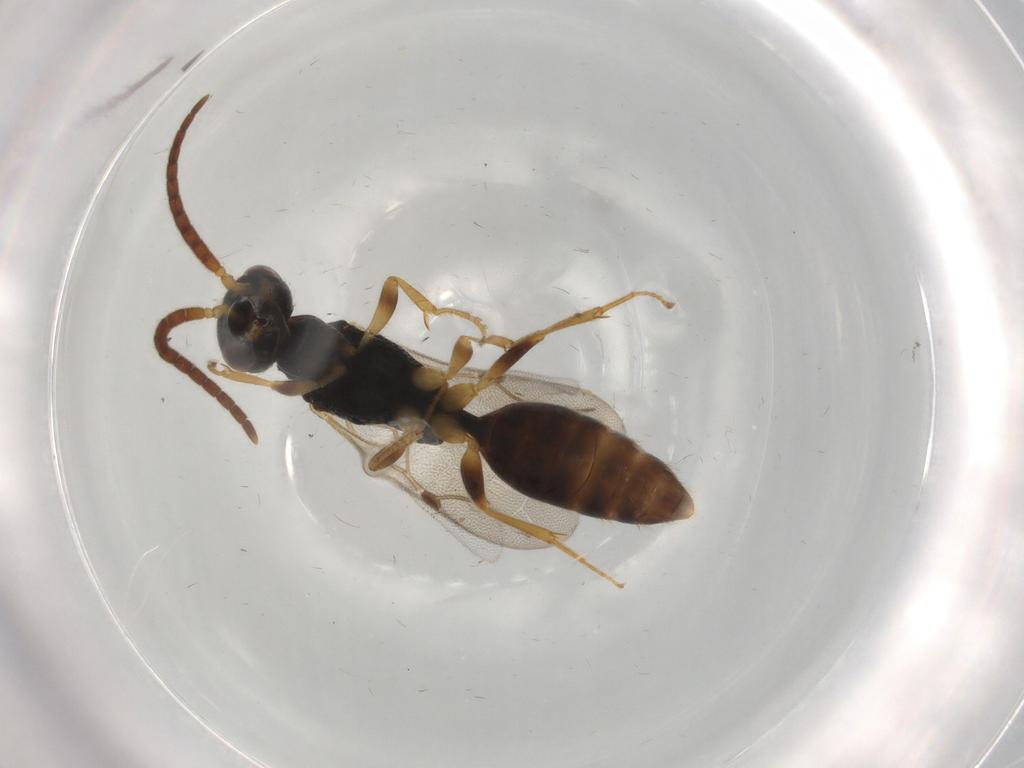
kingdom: Animalia
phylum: Arthropoda
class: Insecta
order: Hymenoptera
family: Bethylidae
